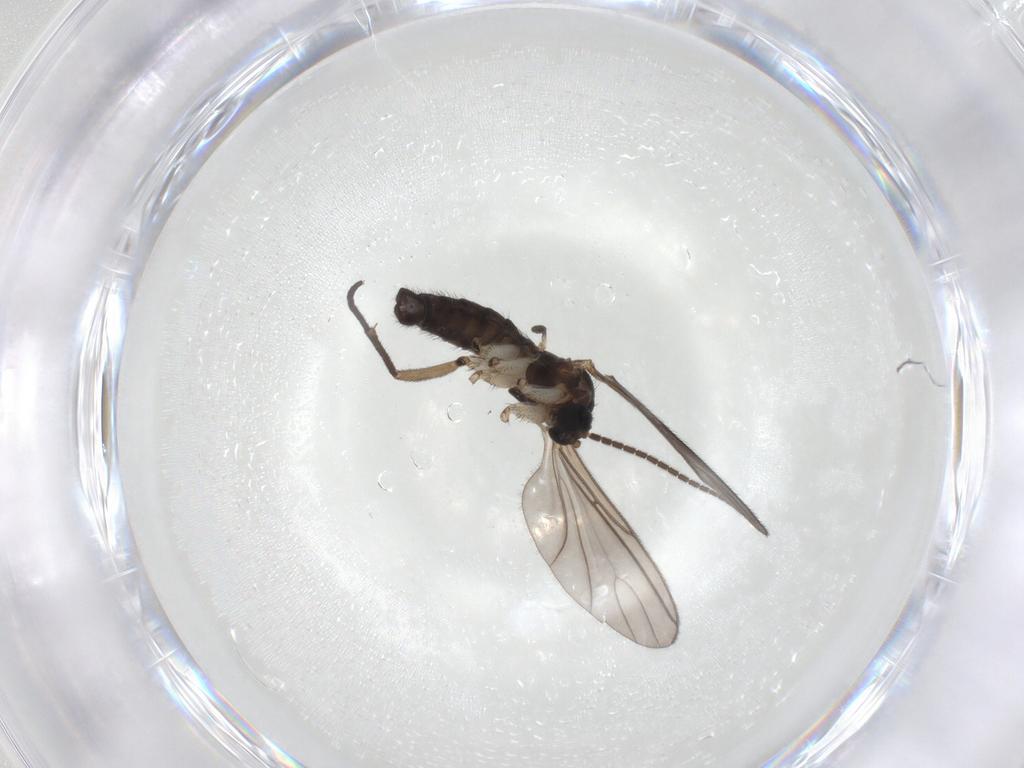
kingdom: Animalia
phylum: Arthropoda
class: Insecta
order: Diptera
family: Sciaridae
